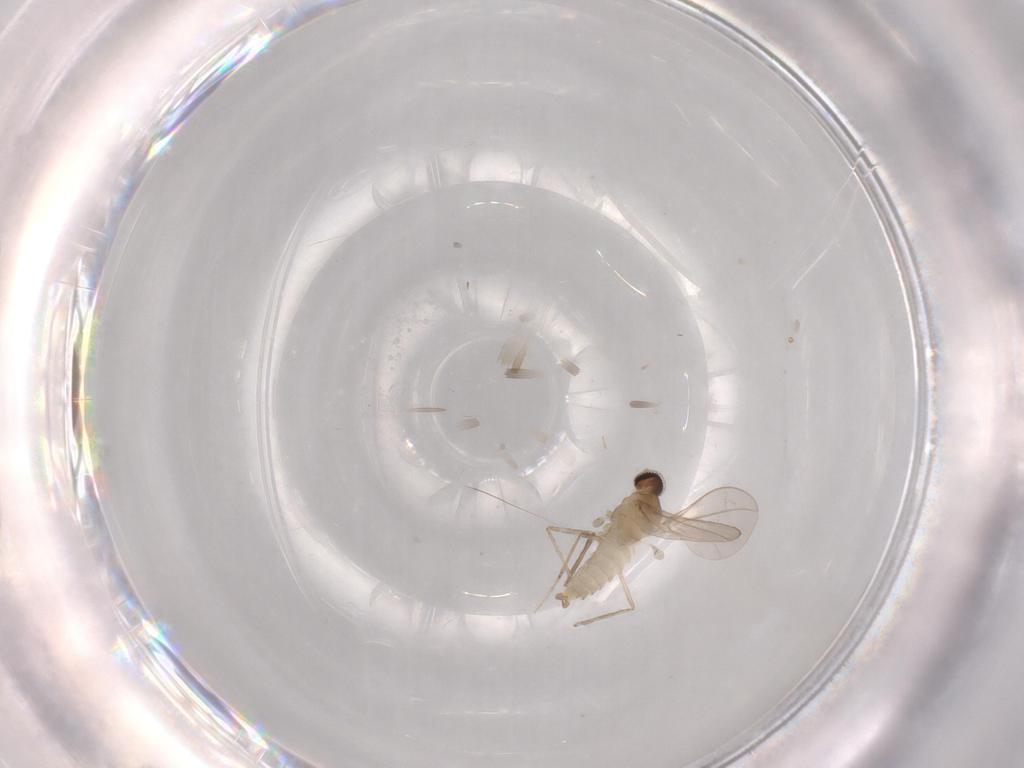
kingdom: Animalia
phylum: Arthropoda
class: Insecta
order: Diptera
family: Cecidomyiidae
